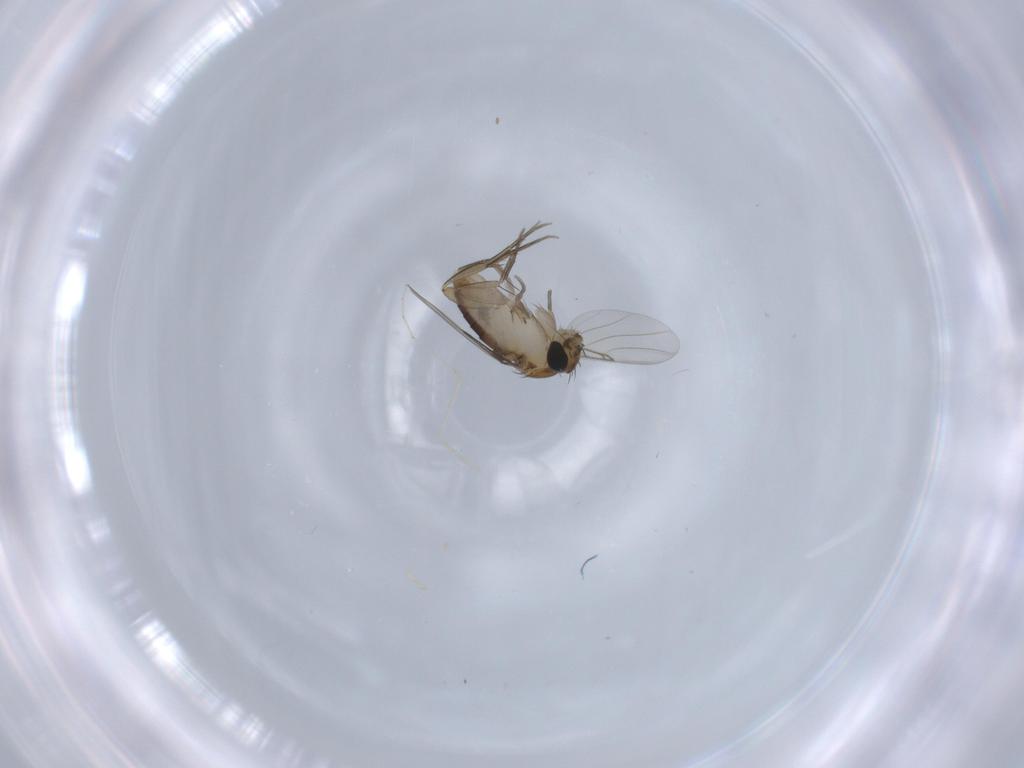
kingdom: Animalia
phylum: Arthropoda
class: Insecta
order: Diptera
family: Phoridae
